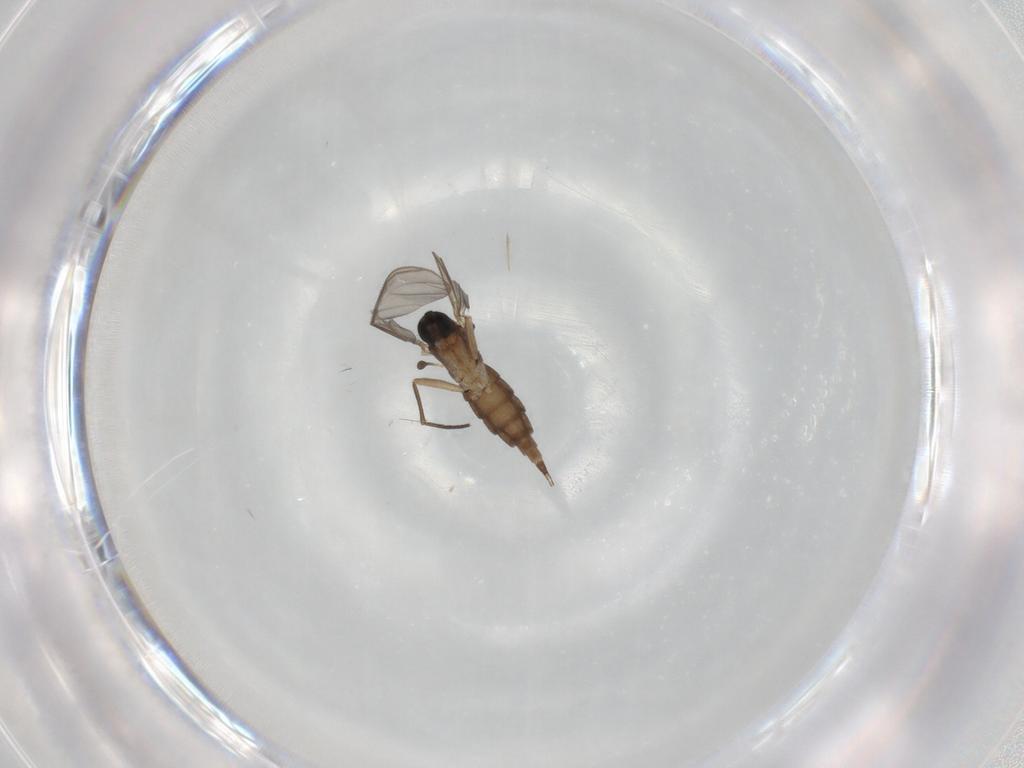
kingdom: Animalia
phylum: Arthropoda
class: Insecta
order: Diptera
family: Sciaridae
